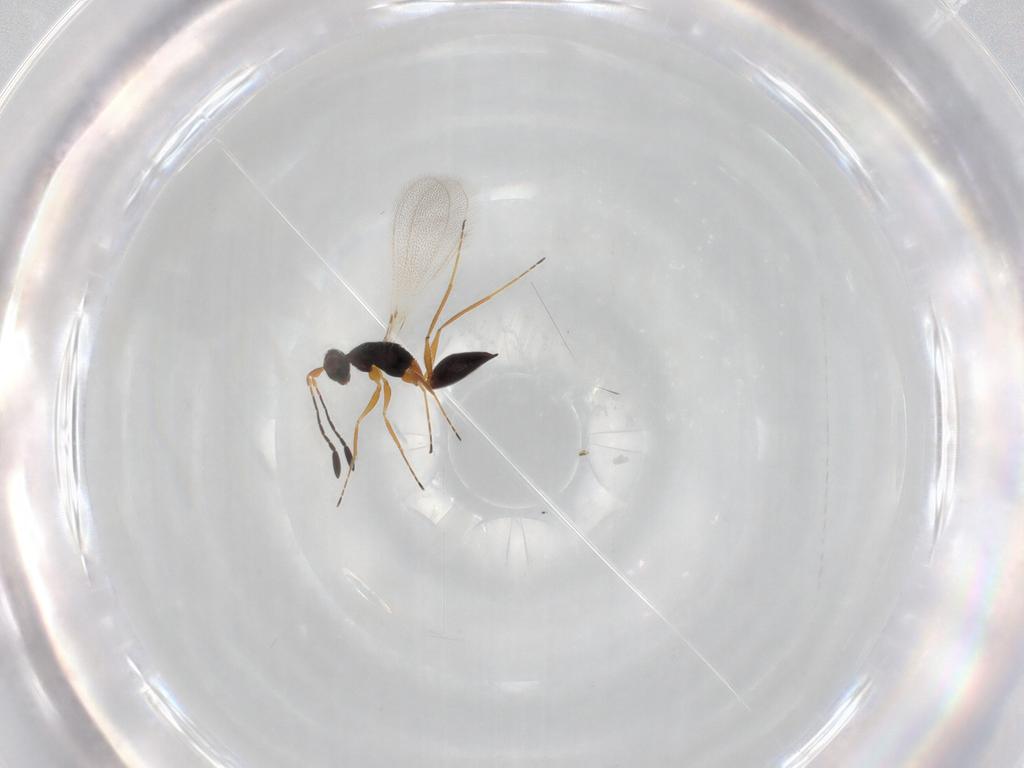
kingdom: Animalia
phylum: Arthropoda
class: Insecta
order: Hymenoptera
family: Mymaridae
